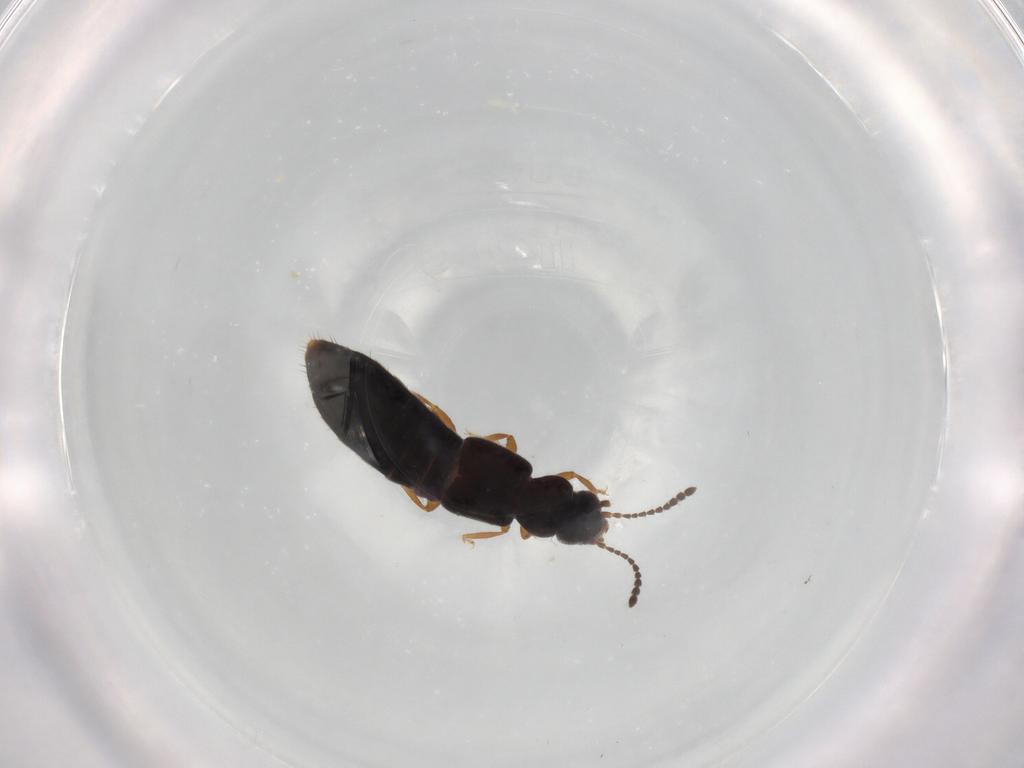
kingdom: Animalia
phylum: Arthropoda
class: Insecta
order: Coleoptera
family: Staphylinidae
